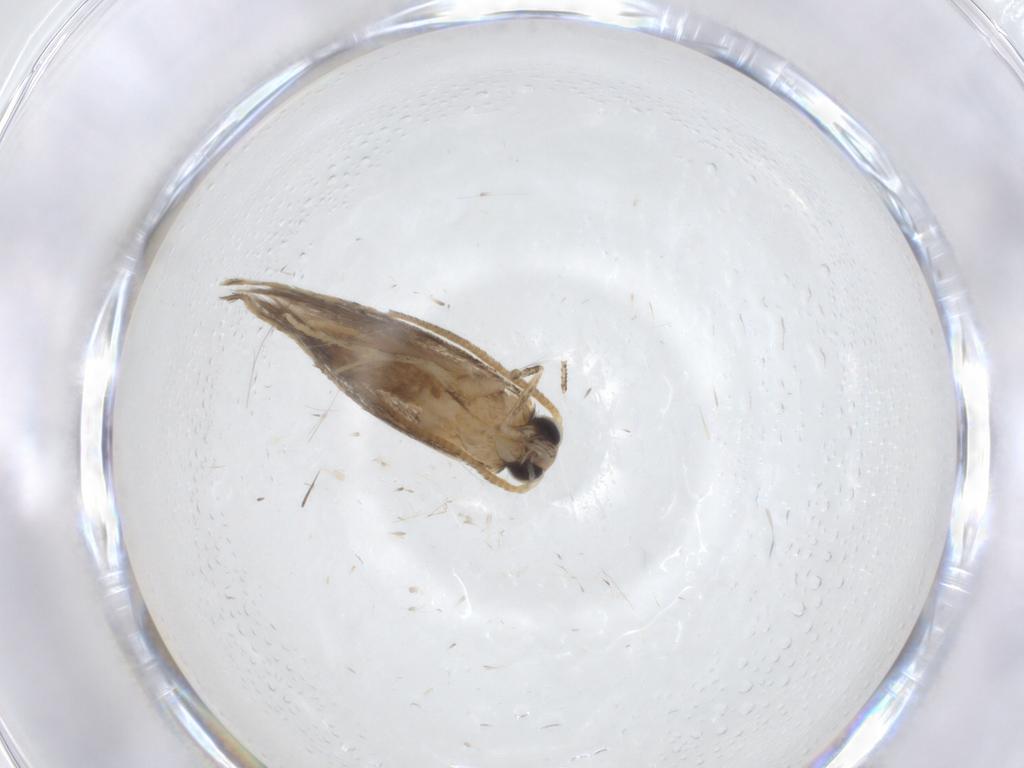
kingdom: Animalia
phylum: Arthropoda
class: Insecta
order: Lepidoptera
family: Tineidae
